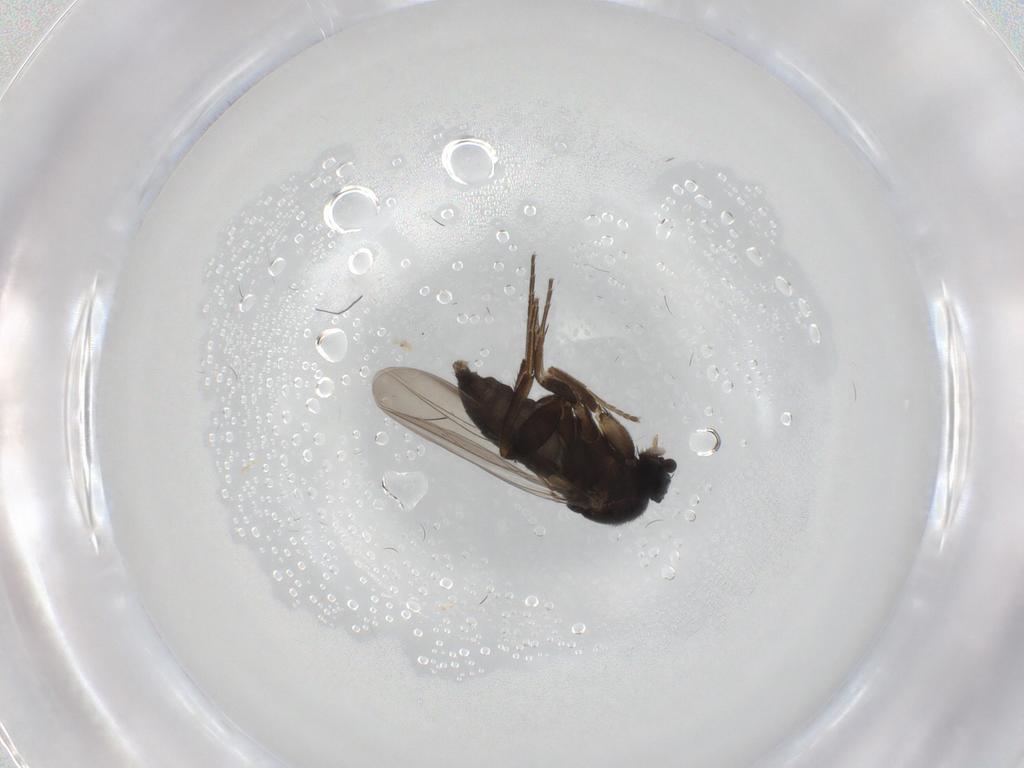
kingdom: Animalia
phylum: Arthropoda
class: Insecta
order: Diptera
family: Phoridae
